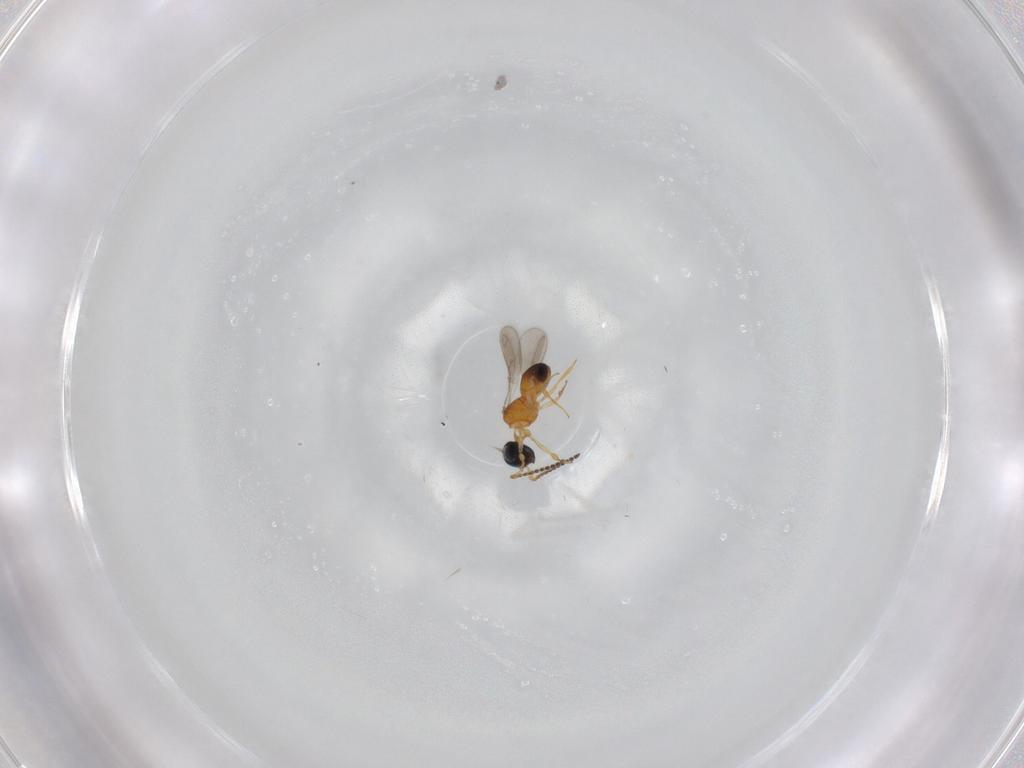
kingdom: Animalia
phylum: Arthropoda
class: Insecta
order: Hymenoptera
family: Scelionidae
